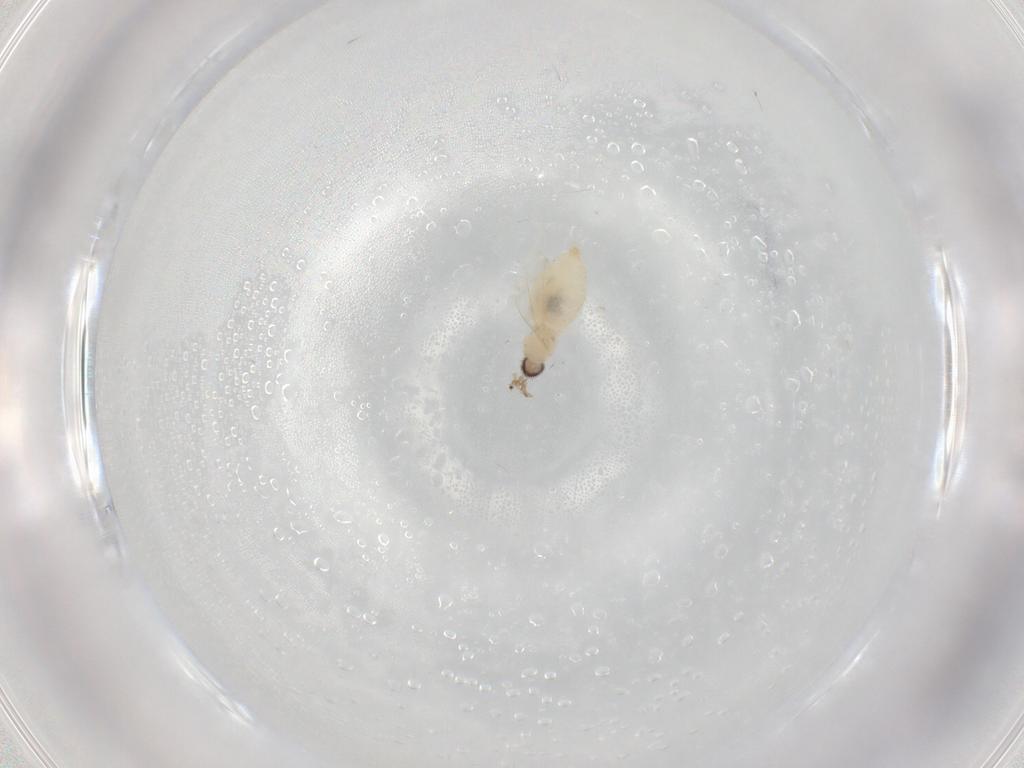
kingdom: Animalia
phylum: Arthropoda
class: Insecta
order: Diptera
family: Cecidomyiidae
